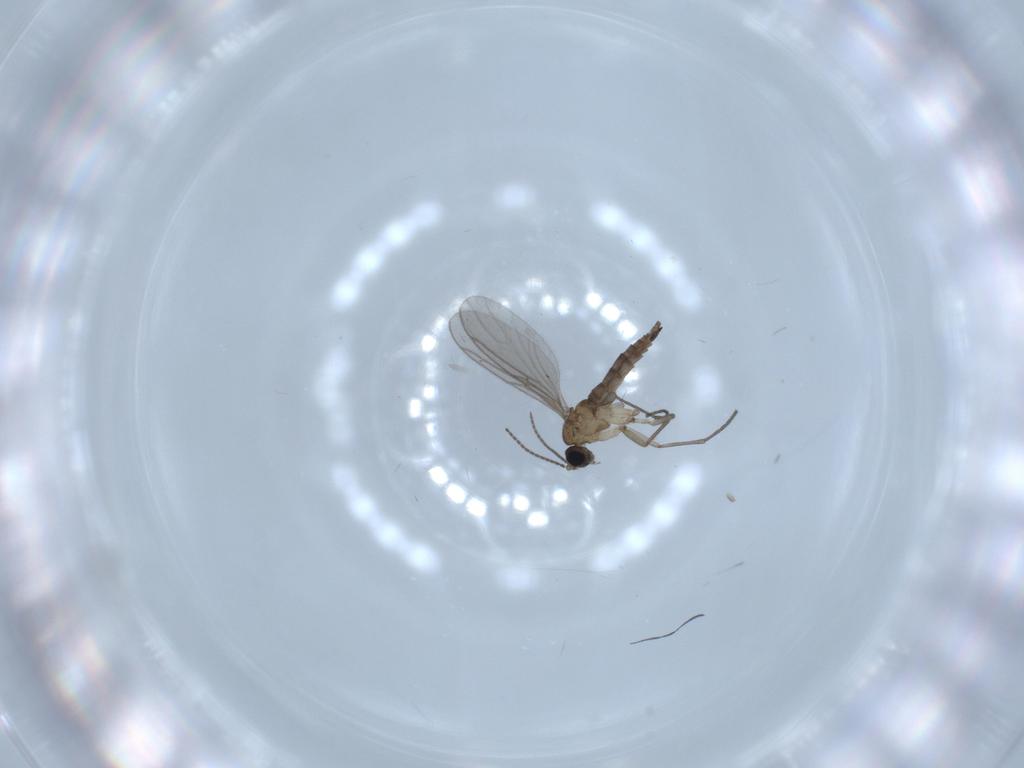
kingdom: Animalia
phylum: Arthropoda
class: Insecta
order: Diptera
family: Sciaridae
